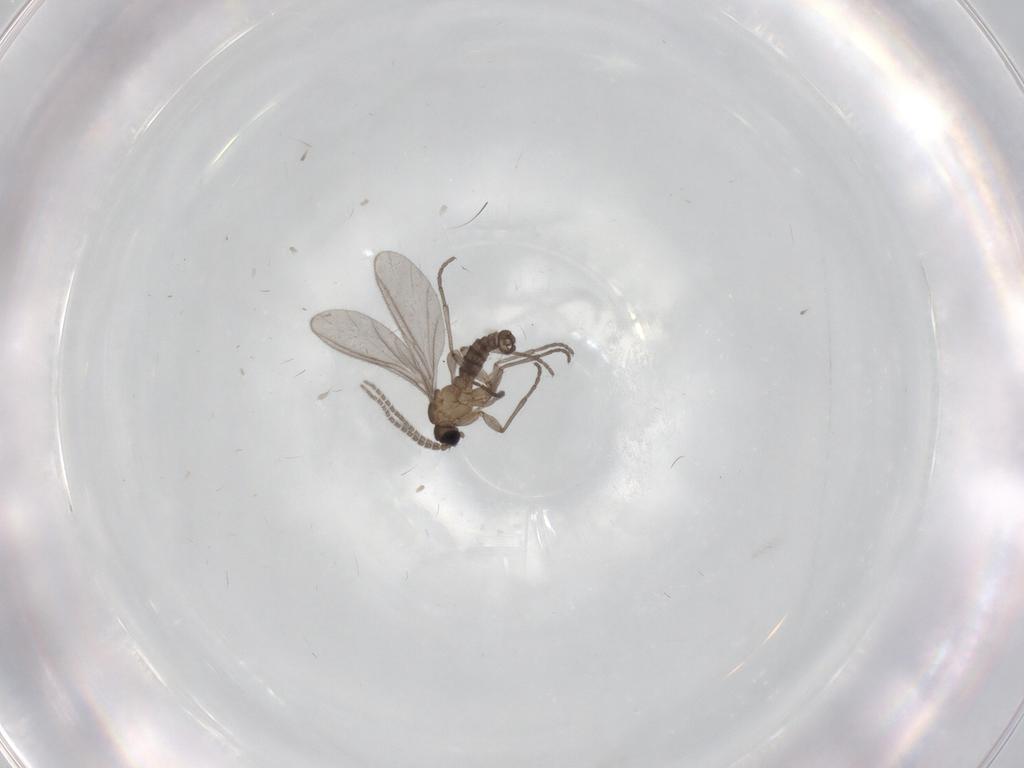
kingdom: Animalia
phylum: Arthropoda
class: Insecta
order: Diptera
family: Sciaridae
